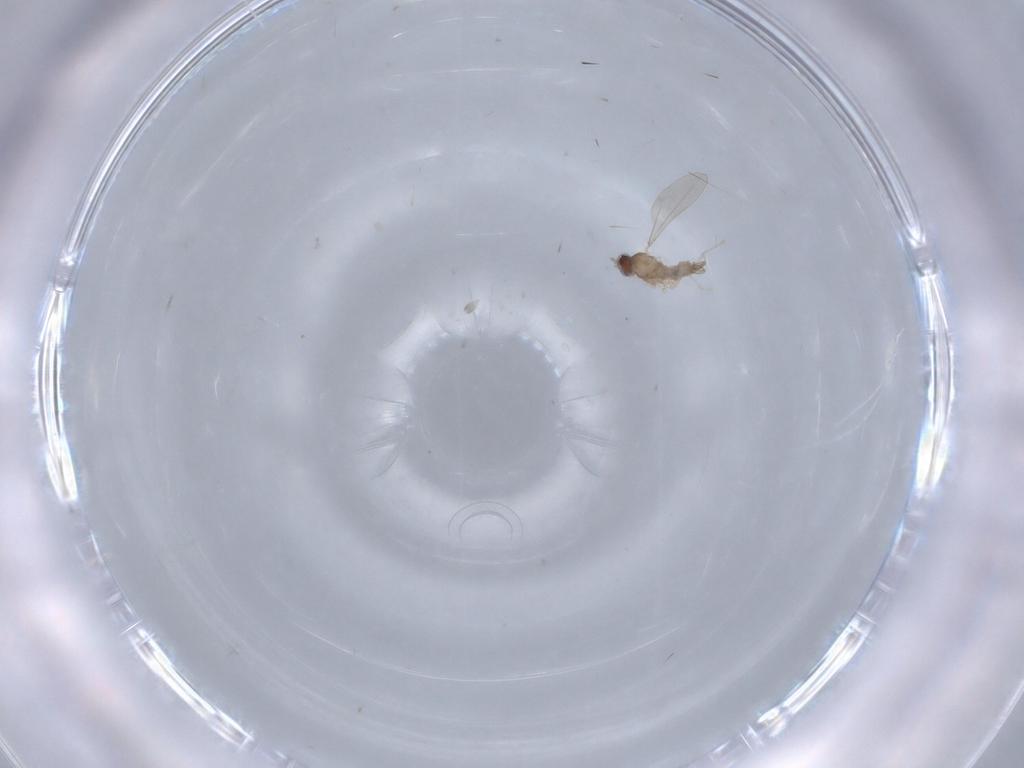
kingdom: Animalia
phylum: Arthropoda
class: Insecta
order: Diptera
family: Cecidomyiidae
